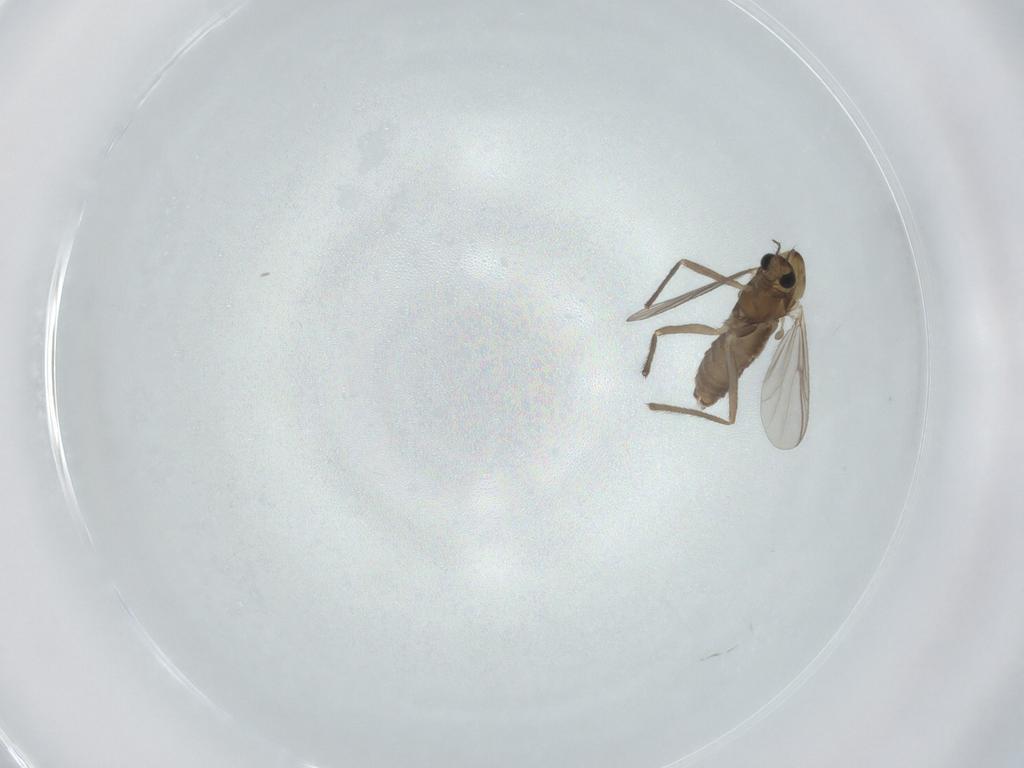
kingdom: Animalia
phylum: Arthropoda
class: Insecta
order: Diptera
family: Chironomidae
